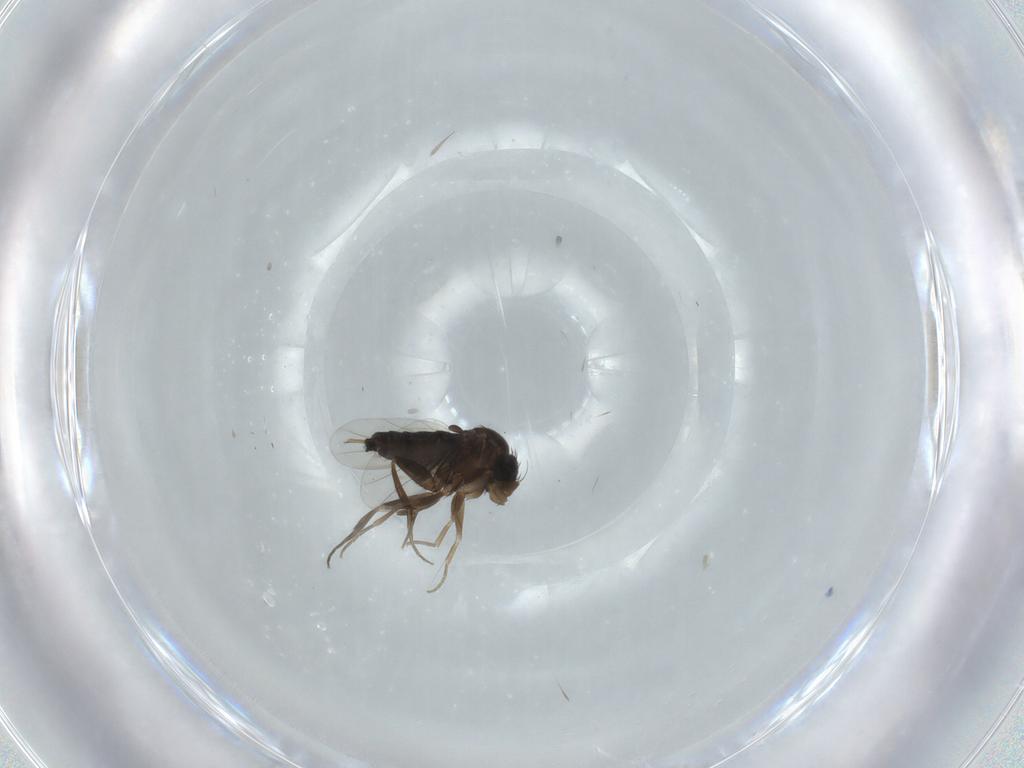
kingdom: Animalia
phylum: Arthropoda
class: Insecta
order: Diptera
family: Phoridae
